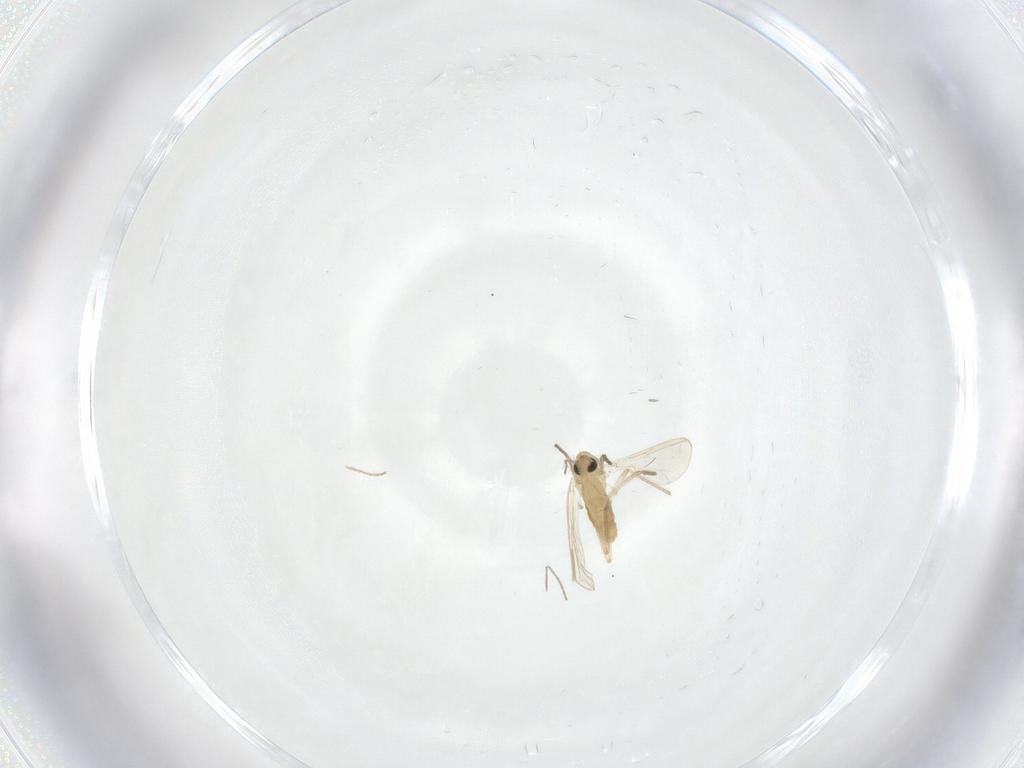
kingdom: Animalia
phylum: Arthropoda
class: Insecta
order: Diptera
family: Chironomidae
